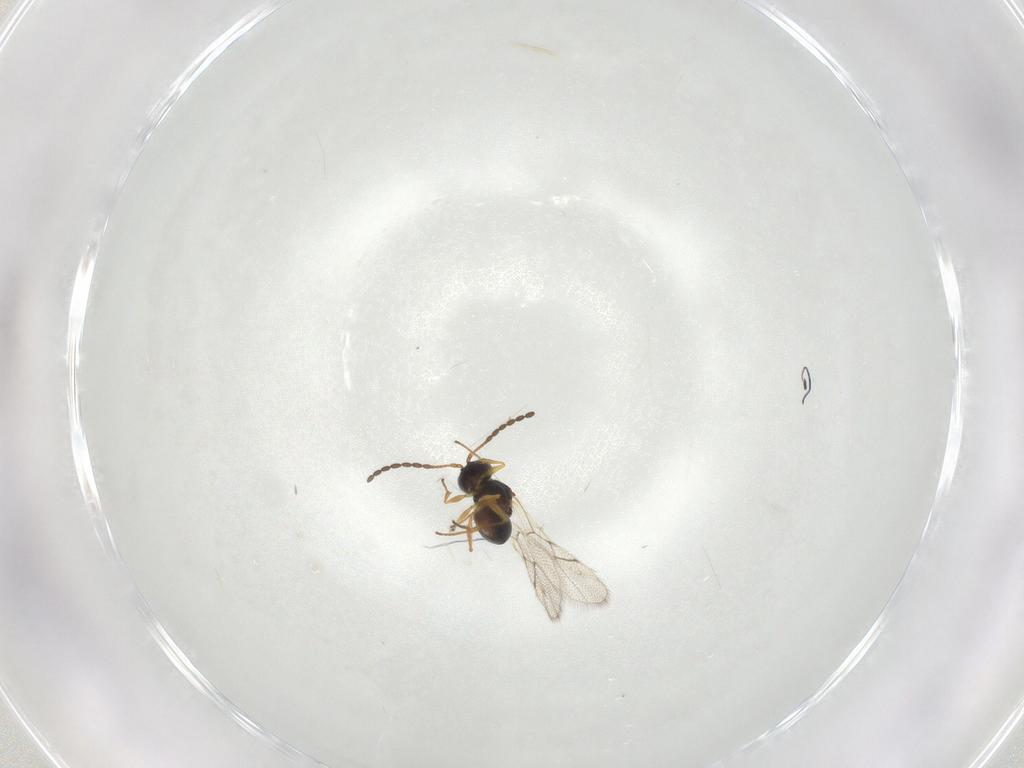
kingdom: Animalia
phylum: Arthropoda
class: Insecta
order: Hymenoptera
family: Figitidae
